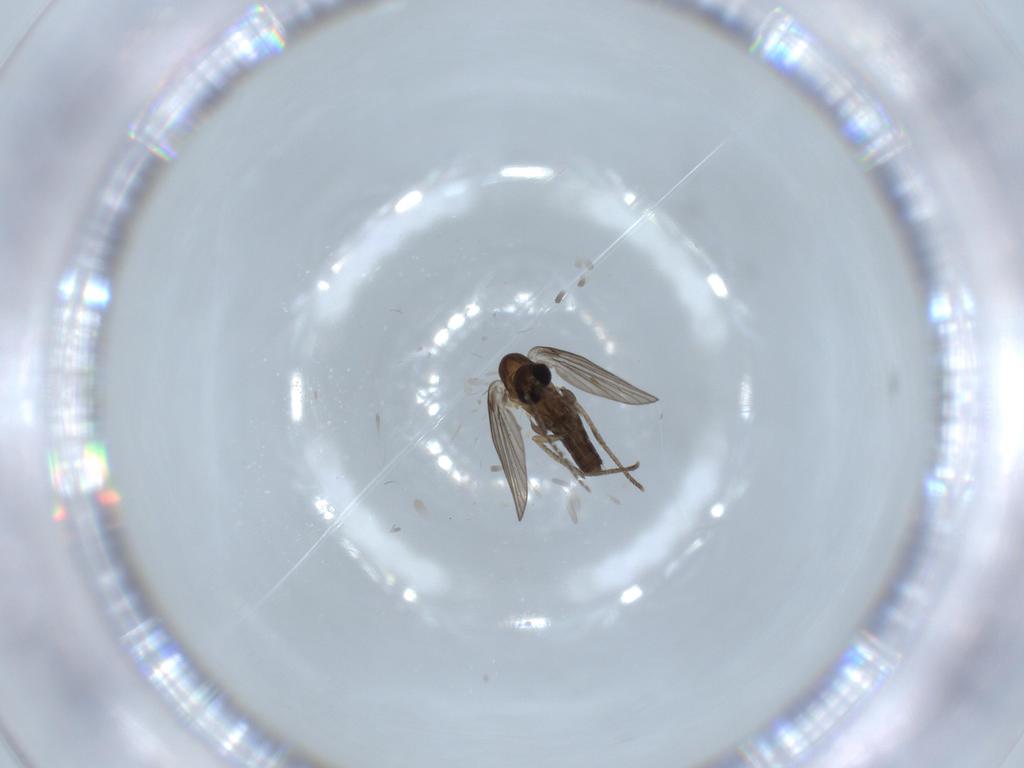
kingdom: Animalia
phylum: Arthropoda
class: Insecta
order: Diptera
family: Psychodidae
